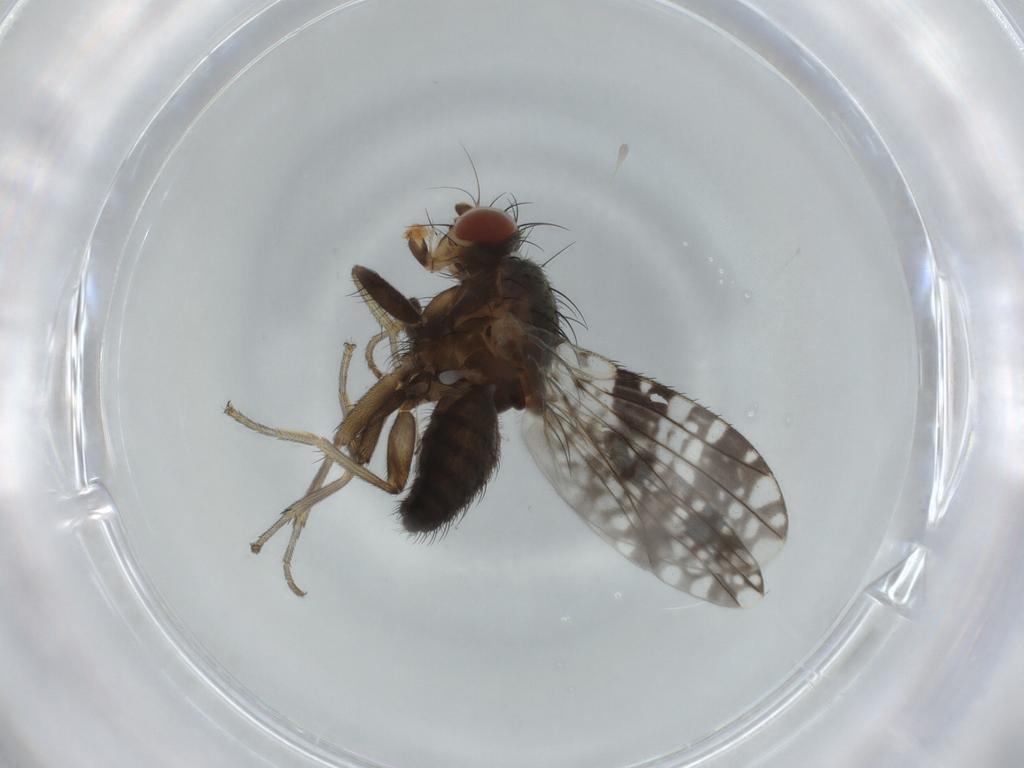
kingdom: Animalia
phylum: Arthropoda
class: Insecta
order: Diptera
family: Tephritidae
